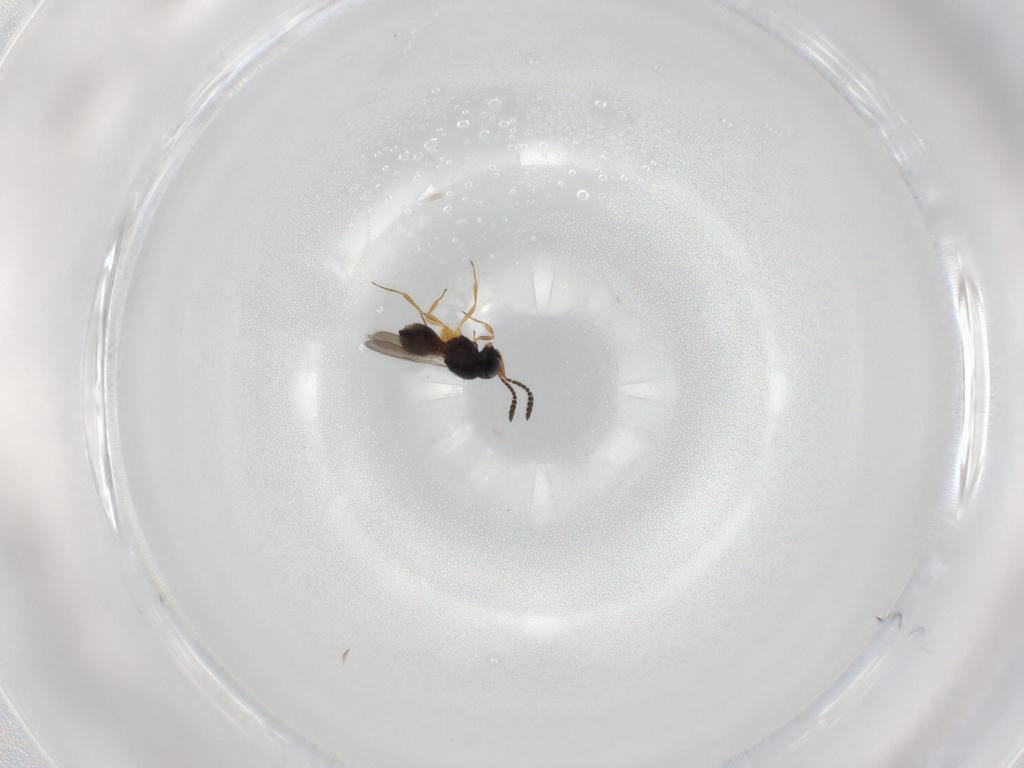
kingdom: Animalia
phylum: Arthropoda
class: Insecta
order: Hymenoptera
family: Scelionidae
